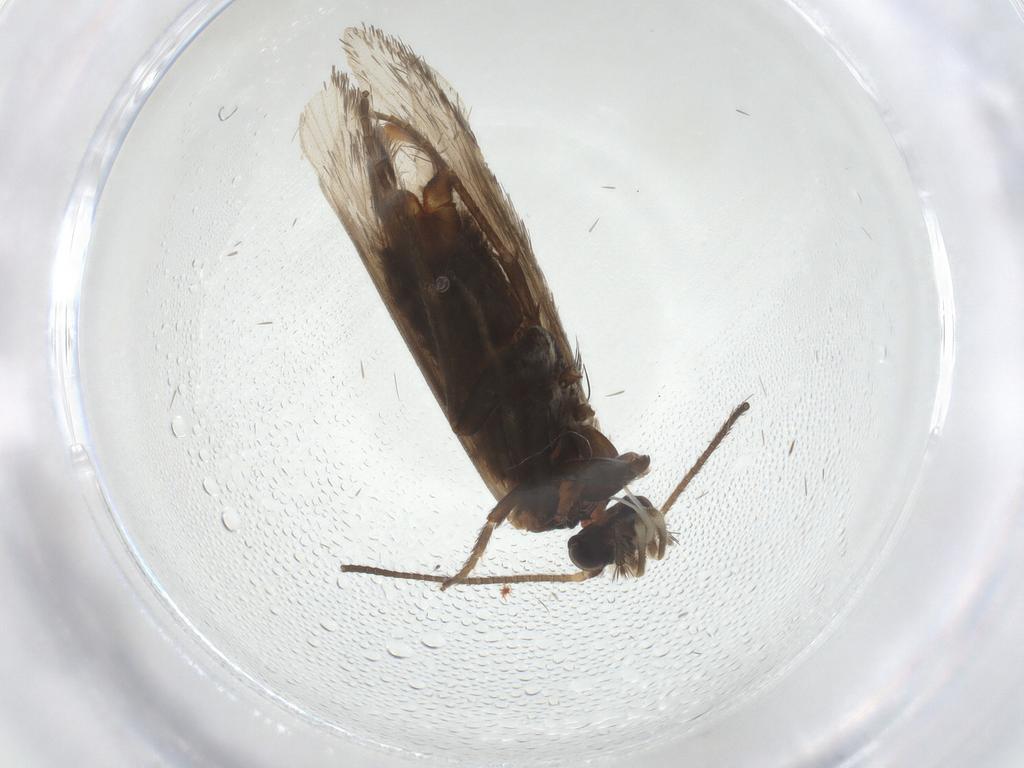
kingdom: Animalia
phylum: Arthropoda
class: Insecta
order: Lepidoptera
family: Prodoxidae
